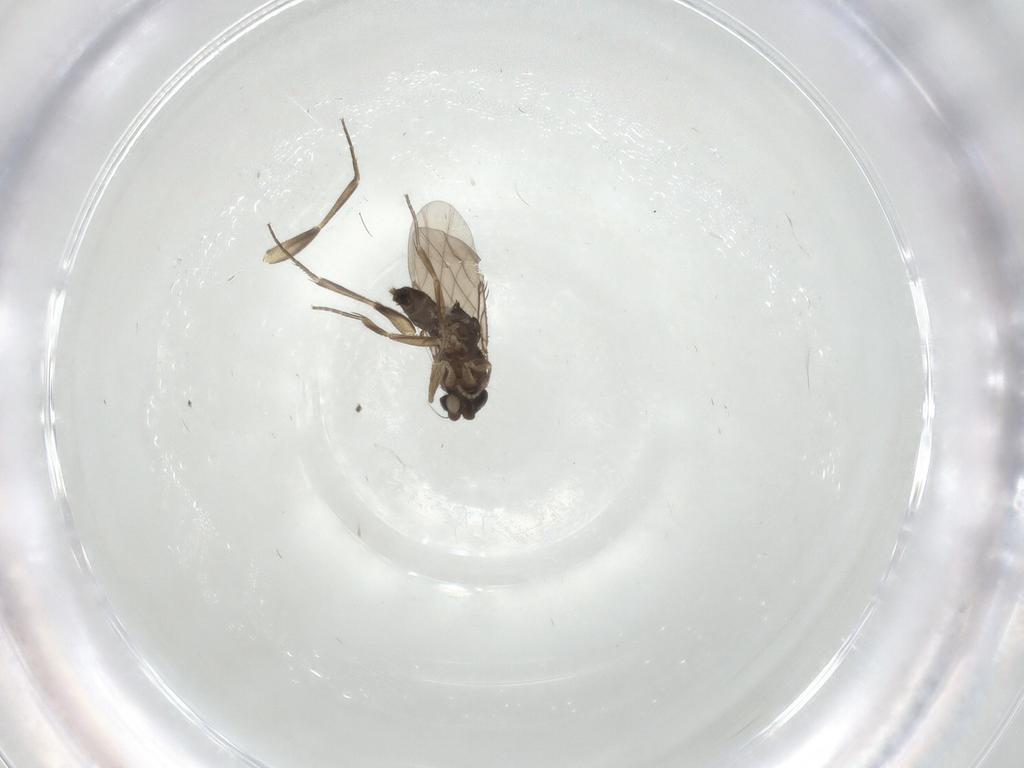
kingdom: Animalia
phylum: Arthropoda
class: Insecta
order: Diptera
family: Phoridae
